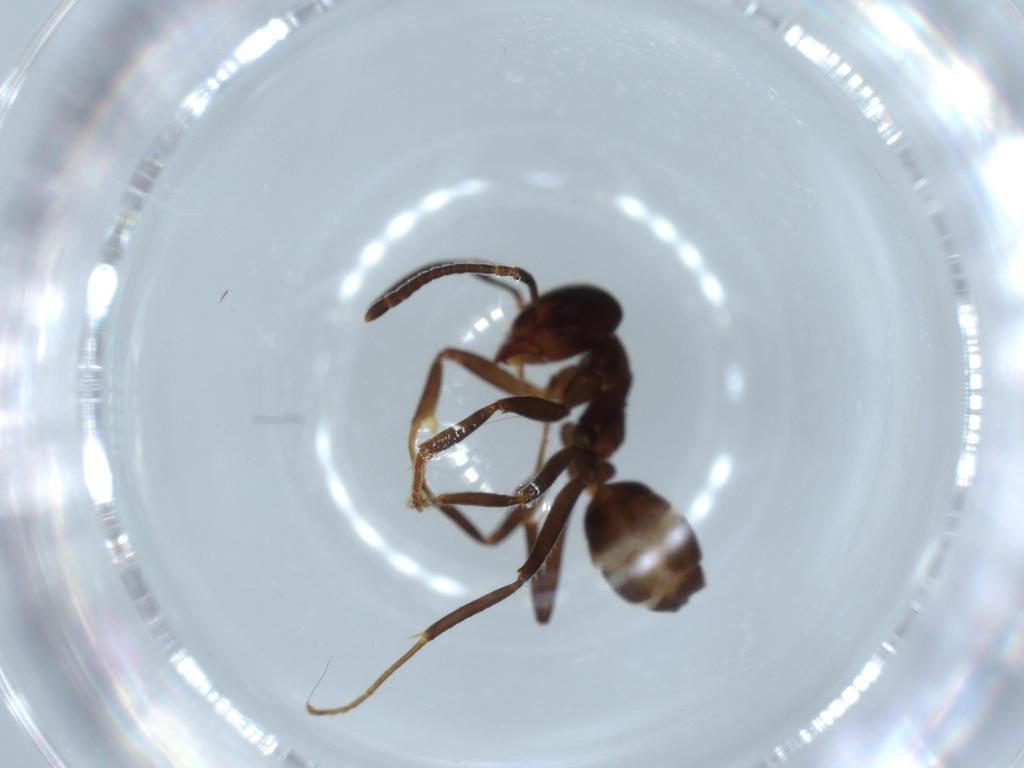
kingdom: Animalia
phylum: Arthropoda
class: Insecta
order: Hymenoptera
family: Formicidae
